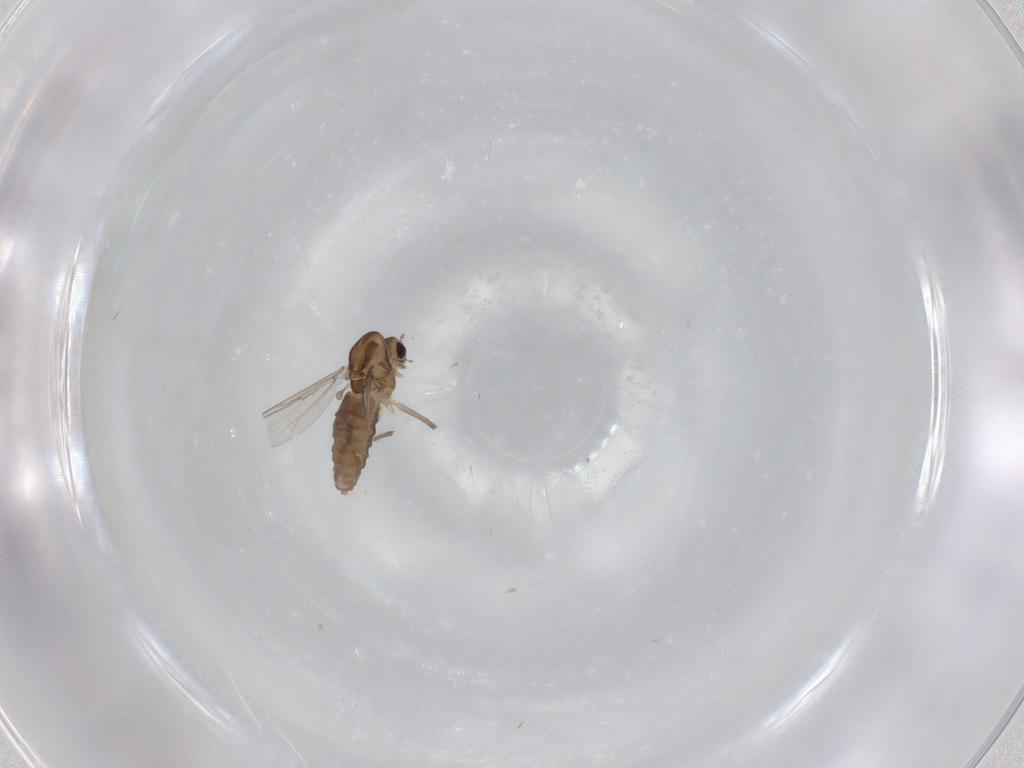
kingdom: Animalia
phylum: Arthropoda
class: Insecta
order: Diptera
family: Chironomidae
